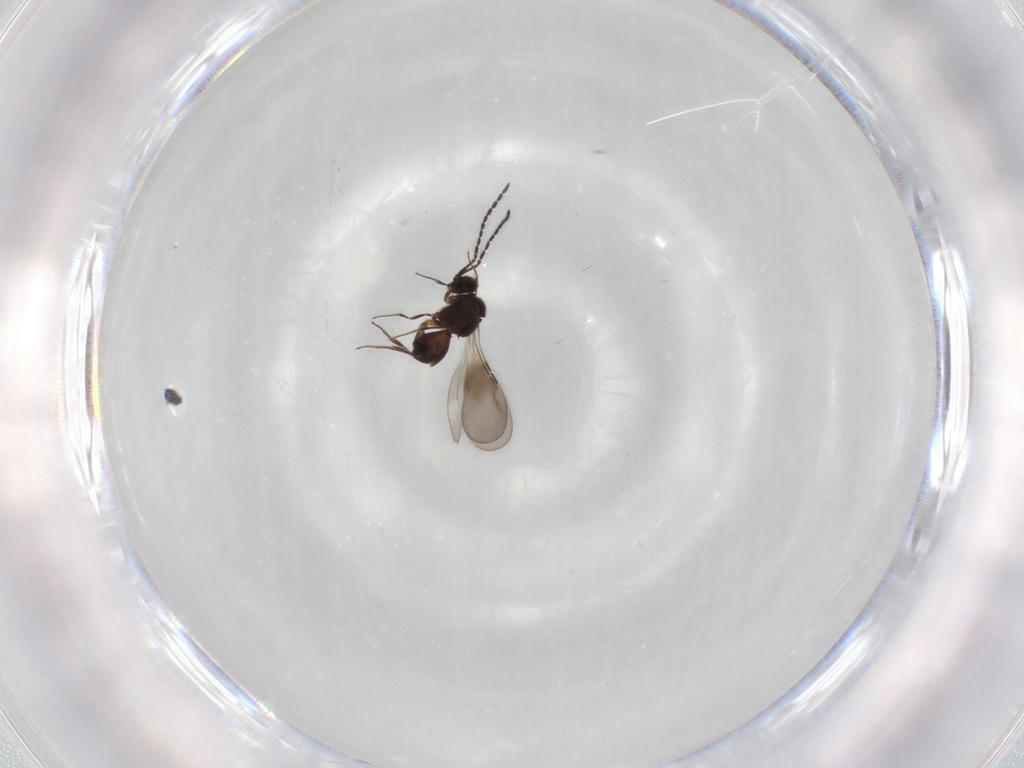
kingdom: Animalia
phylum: Arthropoda
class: Insecta
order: Hymenoptera
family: Ceraphronidae
